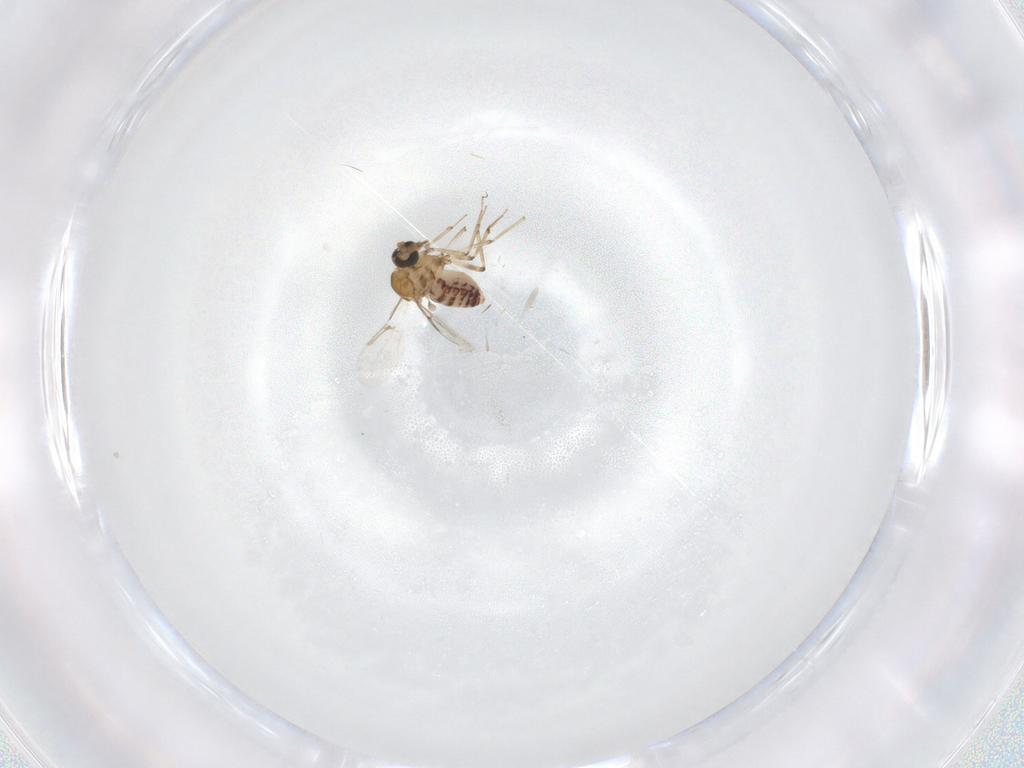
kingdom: Animalia
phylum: Arthropoda
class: Insecta
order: Diptera
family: Ceratopogonidae
